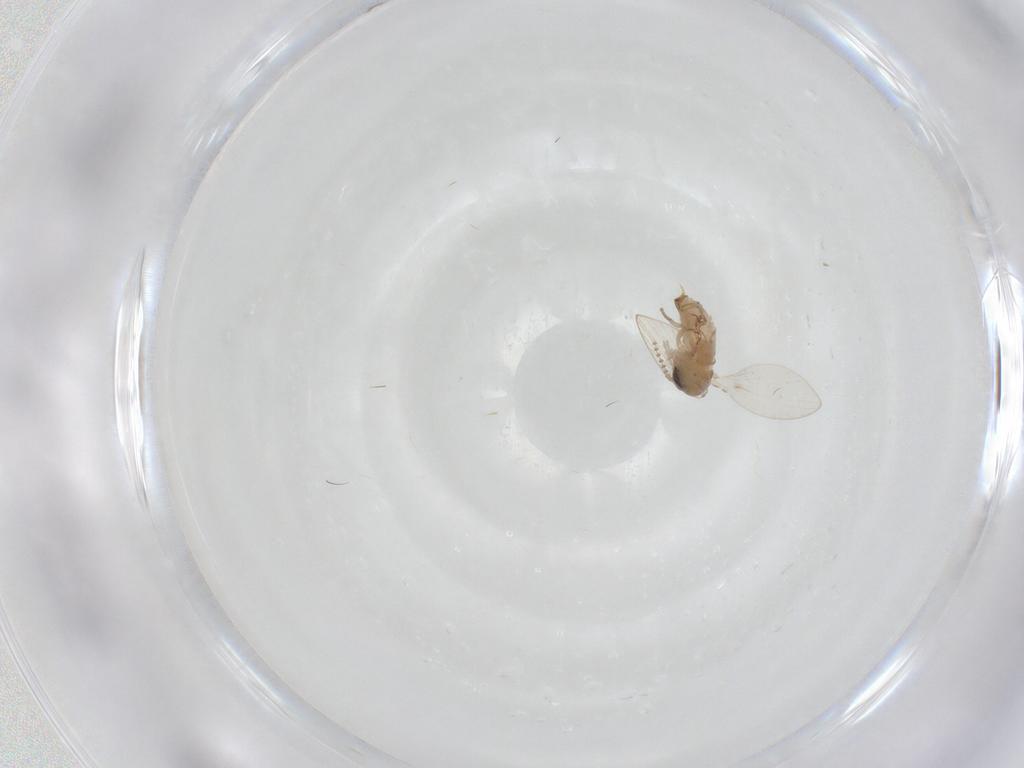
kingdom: Animalia
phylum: Arthropoda
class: Insecta
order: Diptera
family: Psychodidae
